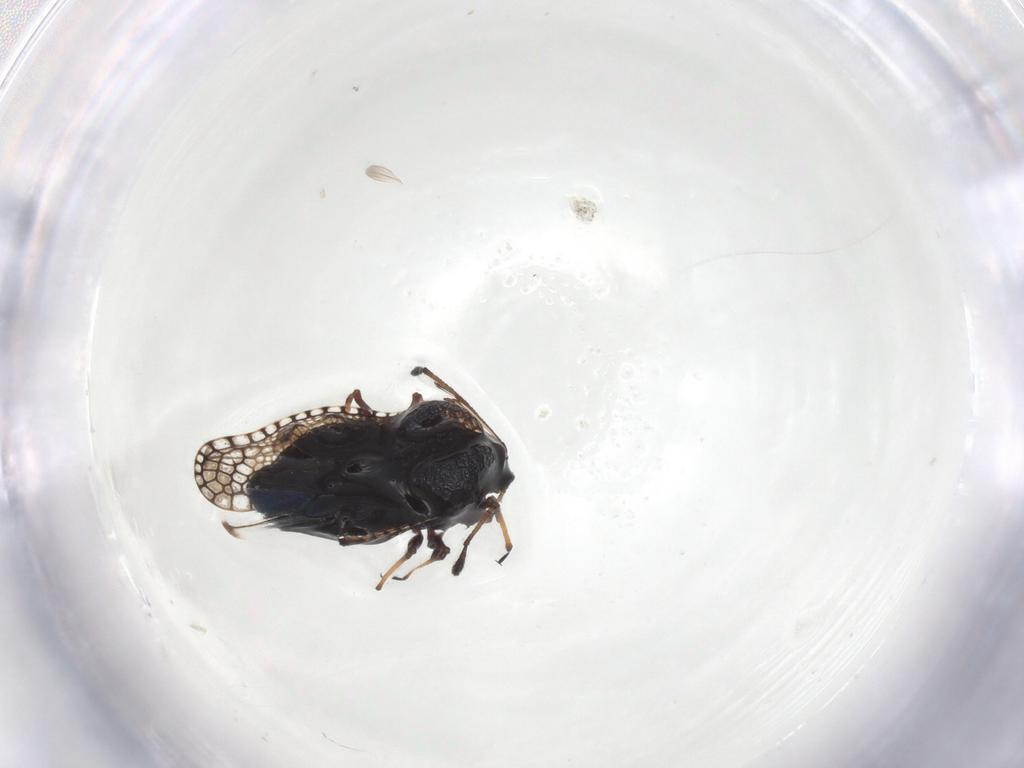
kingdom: Animalia
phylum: Arthropoda
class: Insecta
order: Hemiptera
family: Tingidae
